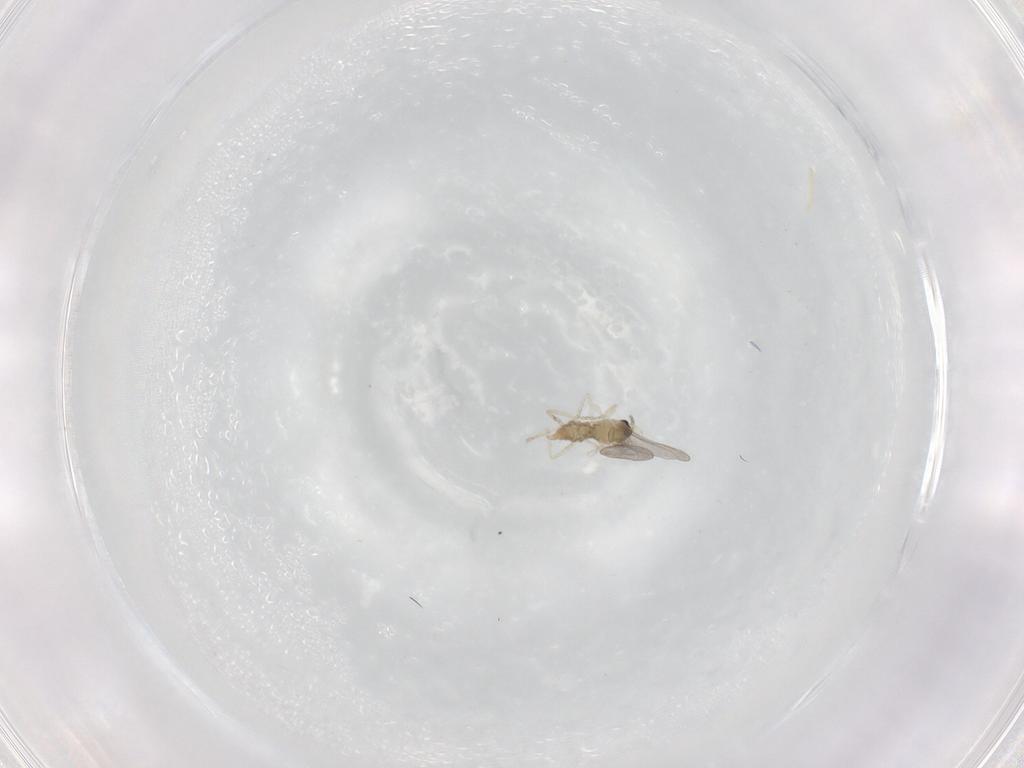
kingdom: Animalia
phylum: Arthropoda
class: Insecta
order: Diptera
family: Cecidomyiidae
